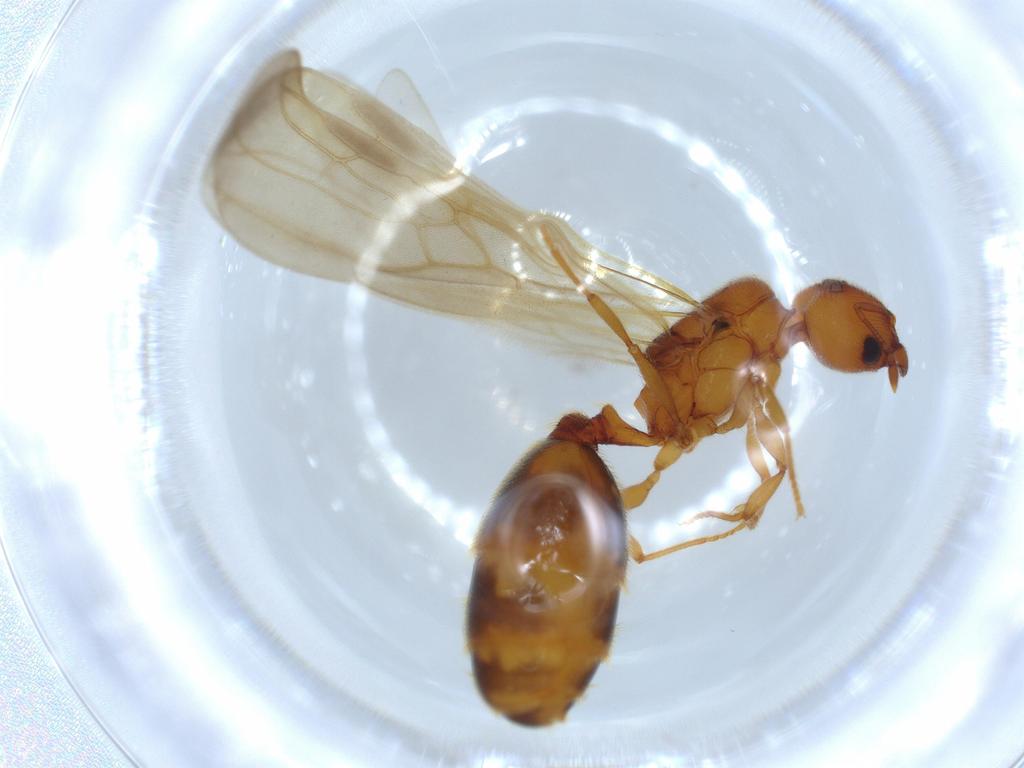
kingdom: Animalia
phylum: Arthropoda
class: Insecta
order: Hymenoptera
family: Formicidae
